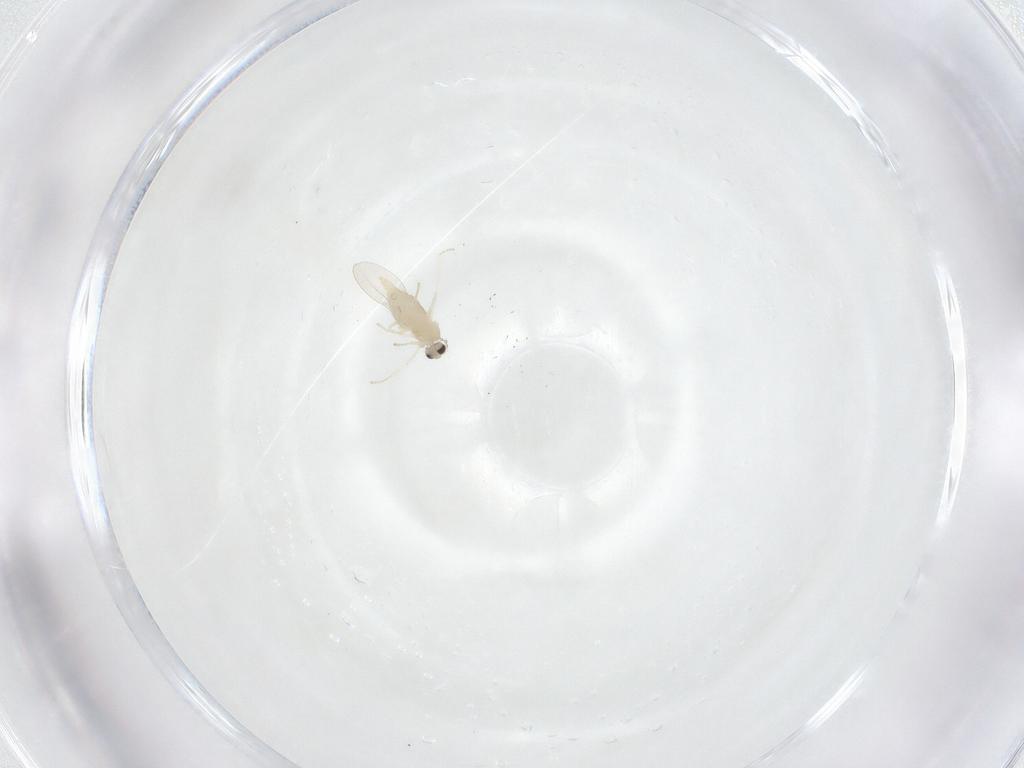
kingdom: Animalia
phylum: Arthropoda
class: Insecta
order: Diptera
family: Cecidomyiidae
